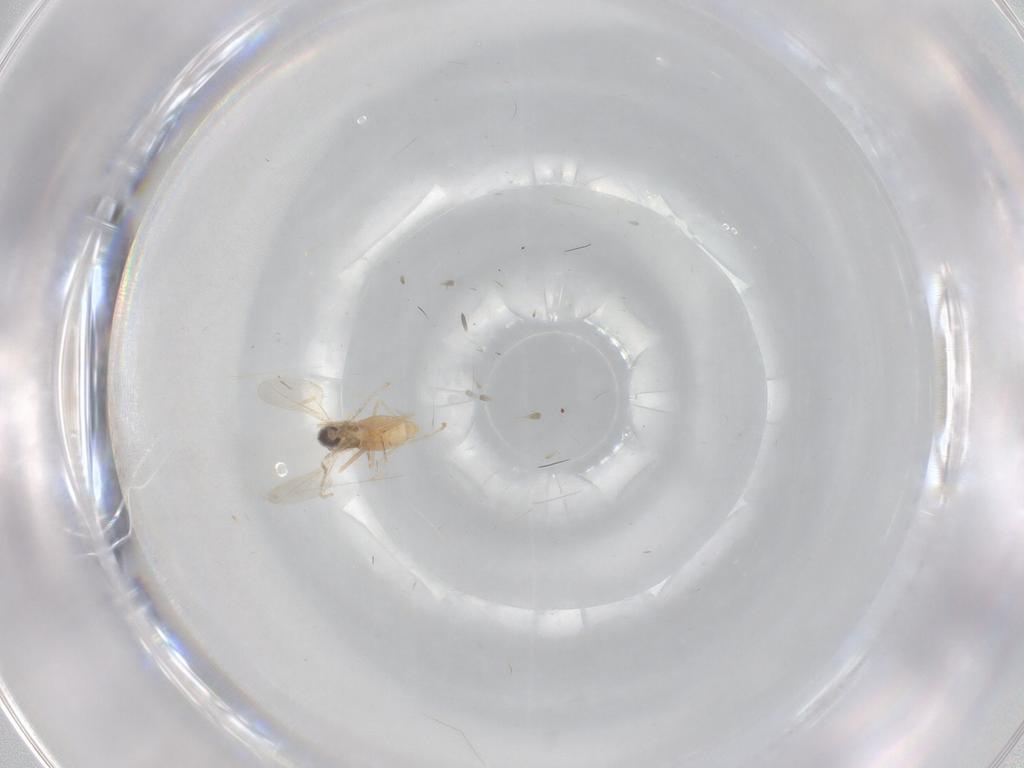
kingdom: Animalia
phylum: Arthropoda
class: Insecta
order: Diptera
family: Cecidomyiidae
